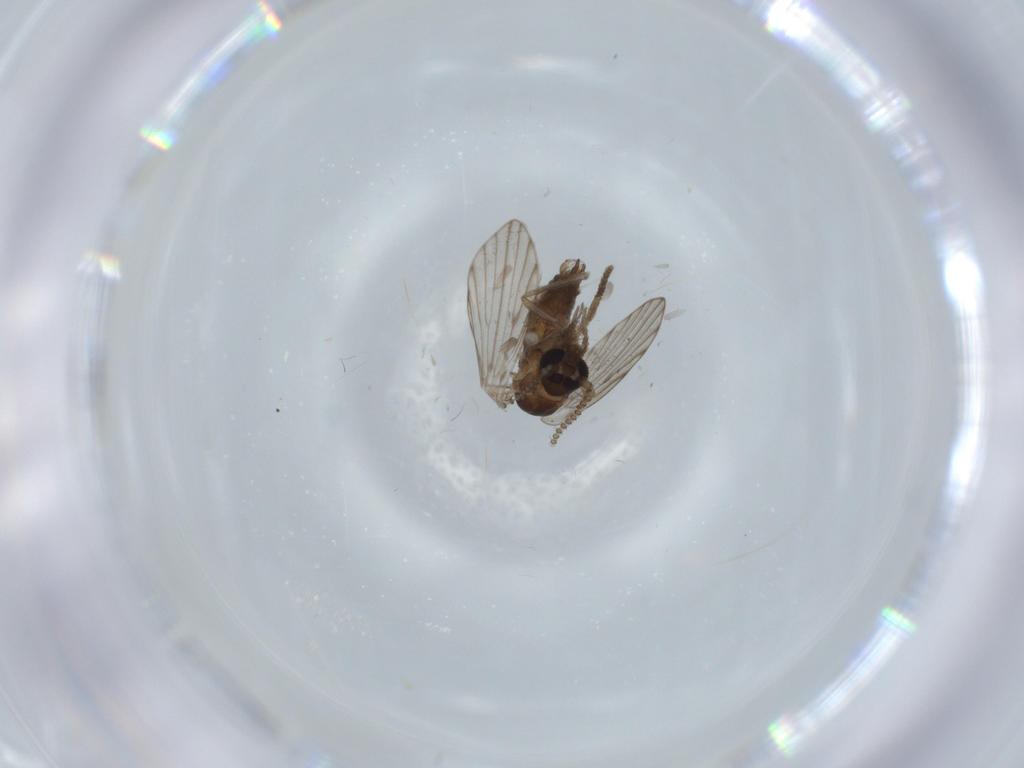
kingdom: Animalia
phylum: Arthropoda
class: Insecta
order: Diptera
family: Psychodidae
